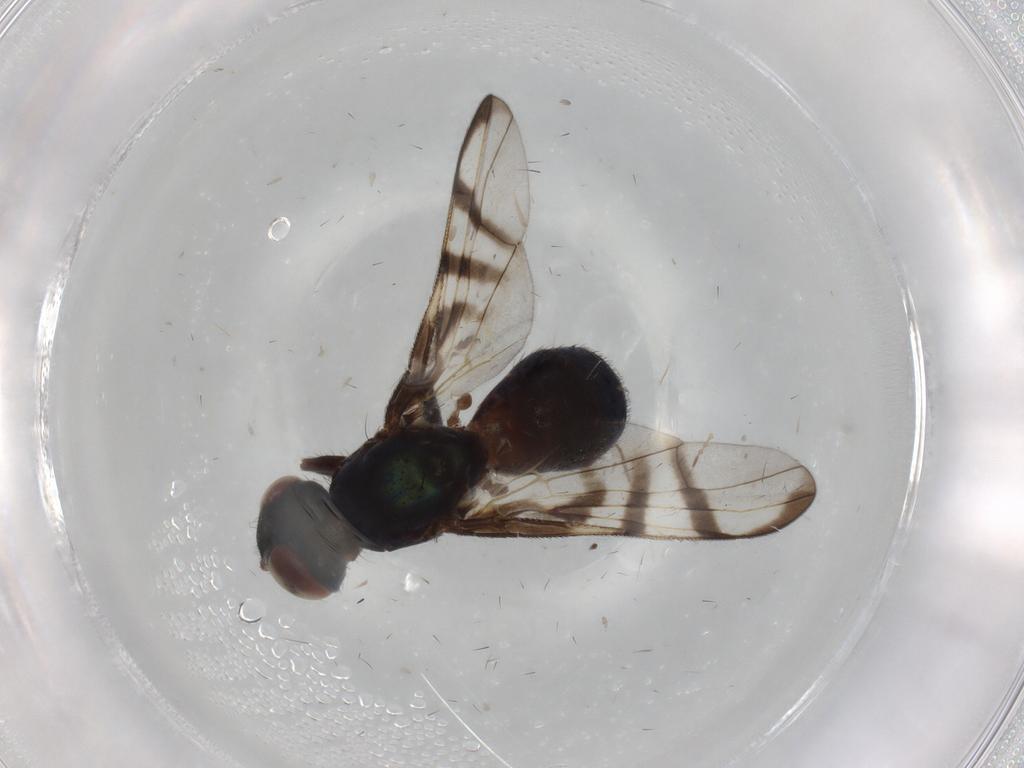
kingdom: Animalia
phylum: Arthropoda
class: Insecta
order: Diptera
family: Platystomatidae
